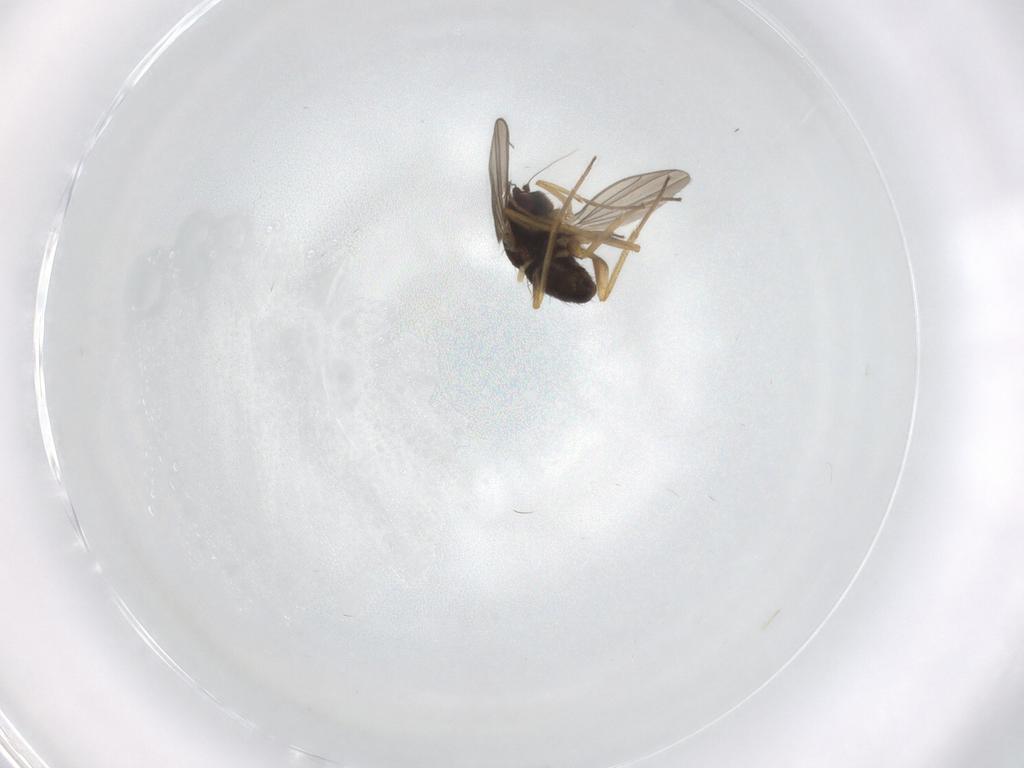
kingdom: Animalia
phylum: Arthropoda
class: Insecta
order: Diptera
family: Dolichopodidae
